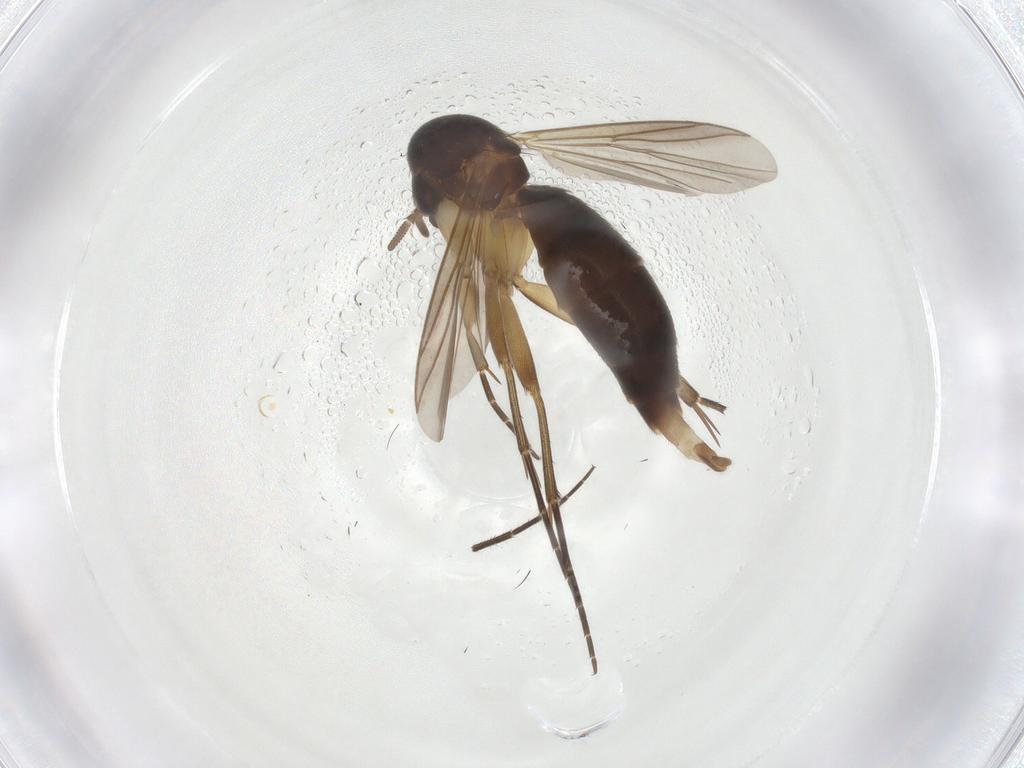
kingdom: Animalia
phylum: Arthropoda
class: Insecta
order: Diptera
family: Mycetophilidae
